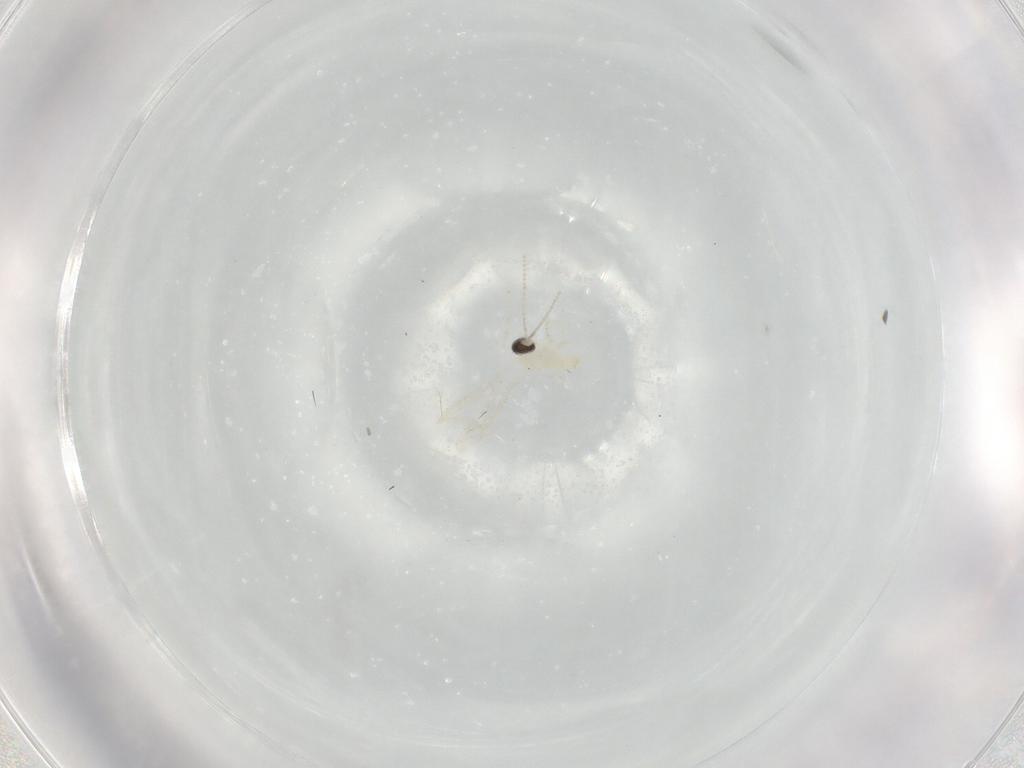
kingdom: Animalia
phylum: Arthropoda
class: Insecta
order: Diptera
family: Cecidomyiidae
